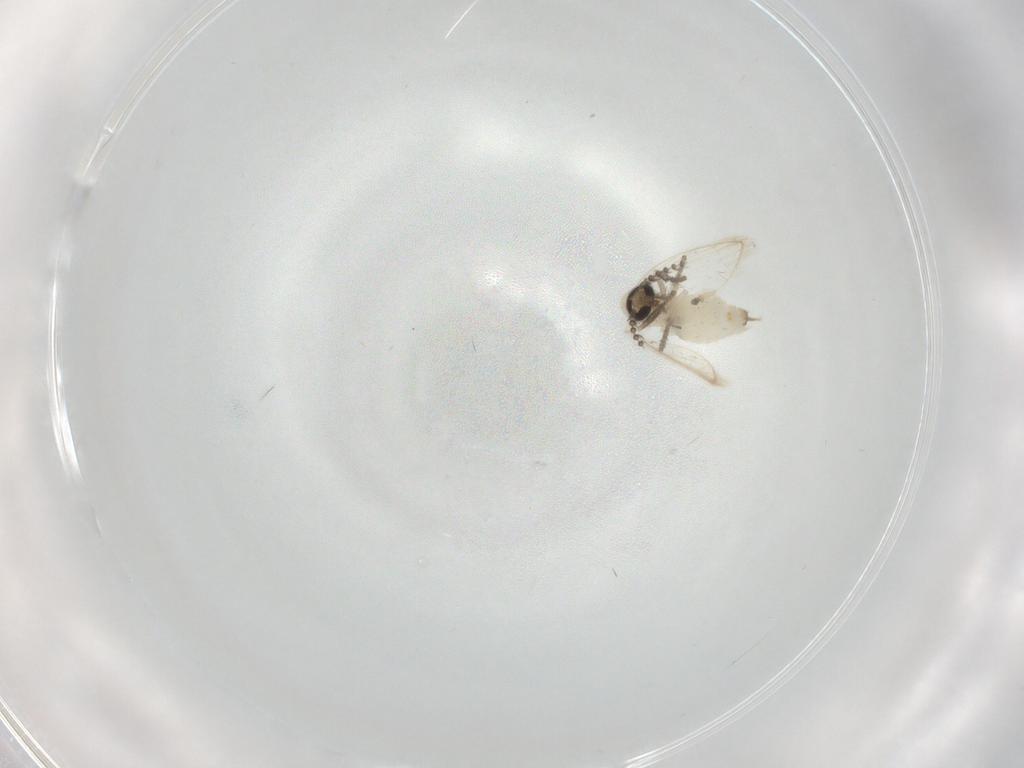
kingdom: Animalia
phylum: Arthropoda
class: Insecta
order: Diptera
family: Psychodidae
